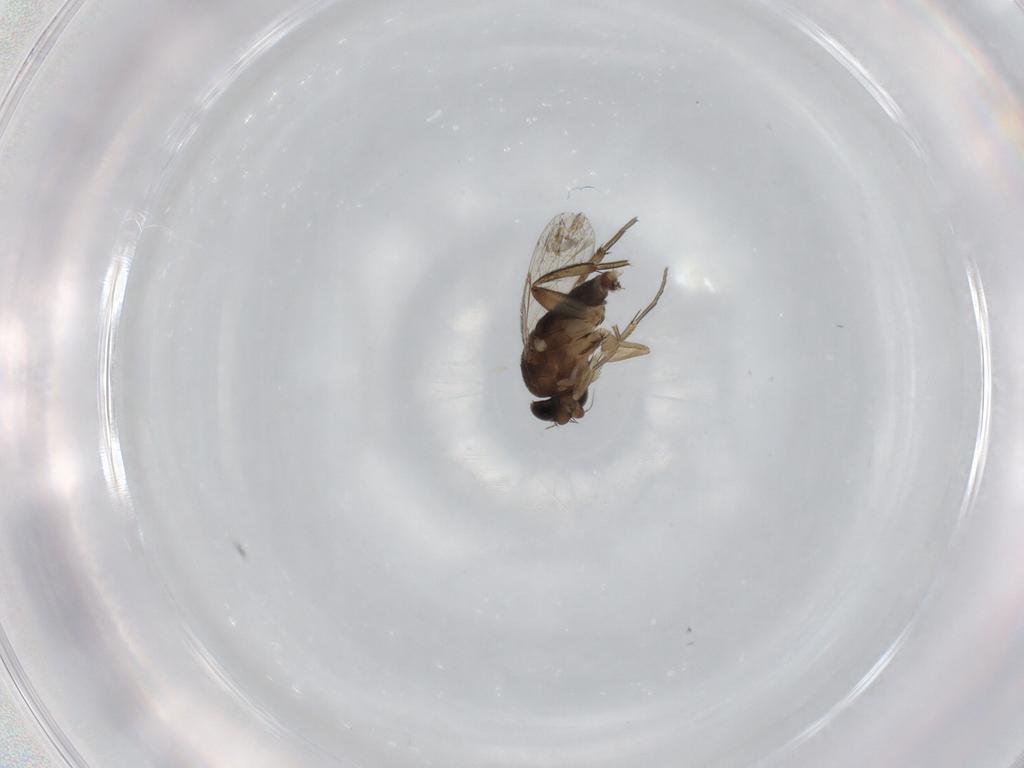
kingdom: Animalia
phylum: Arthropoda
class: Insecta
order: Diptera
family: Phoridae
